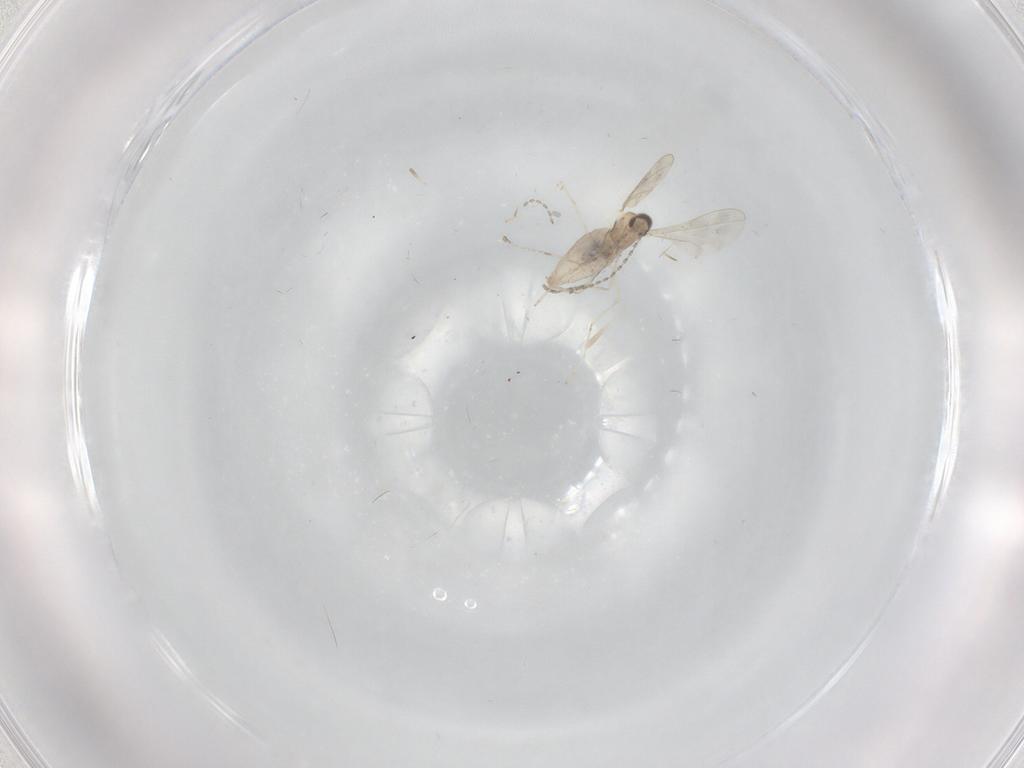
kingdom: Animalia
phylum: Arthropoda
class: Insecta
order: Diptera
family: Cecidomyiidae
